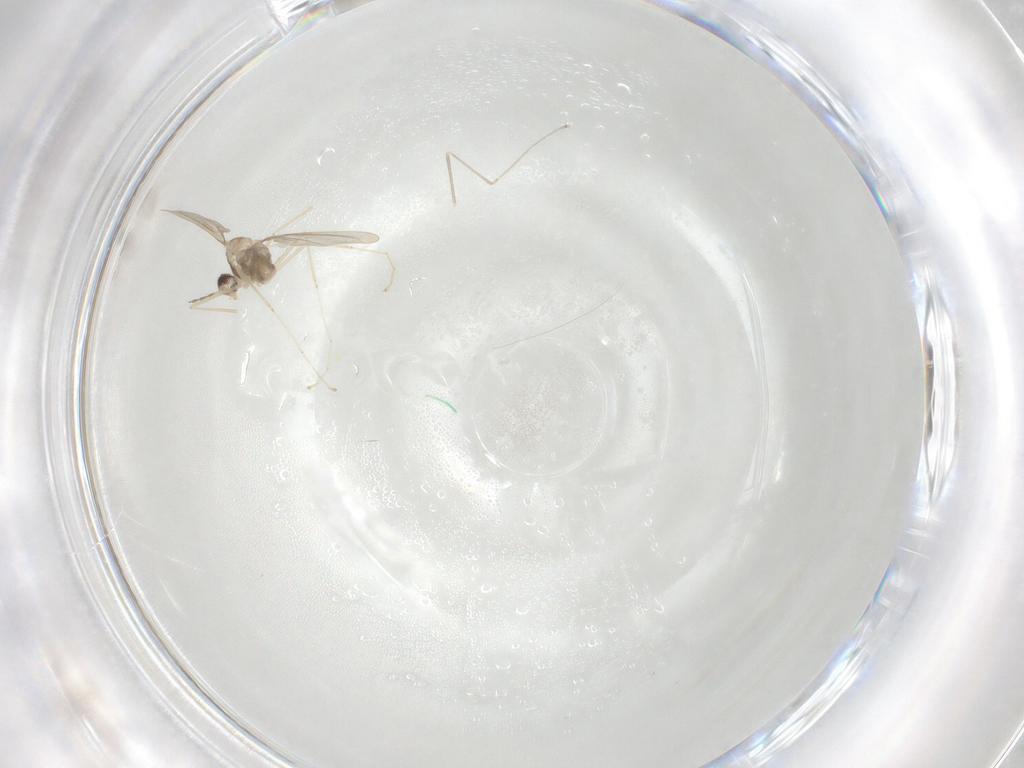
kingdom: Animalia
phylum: Arthropoda
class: Insecta
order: Diptera
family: Cecidomyiidae
